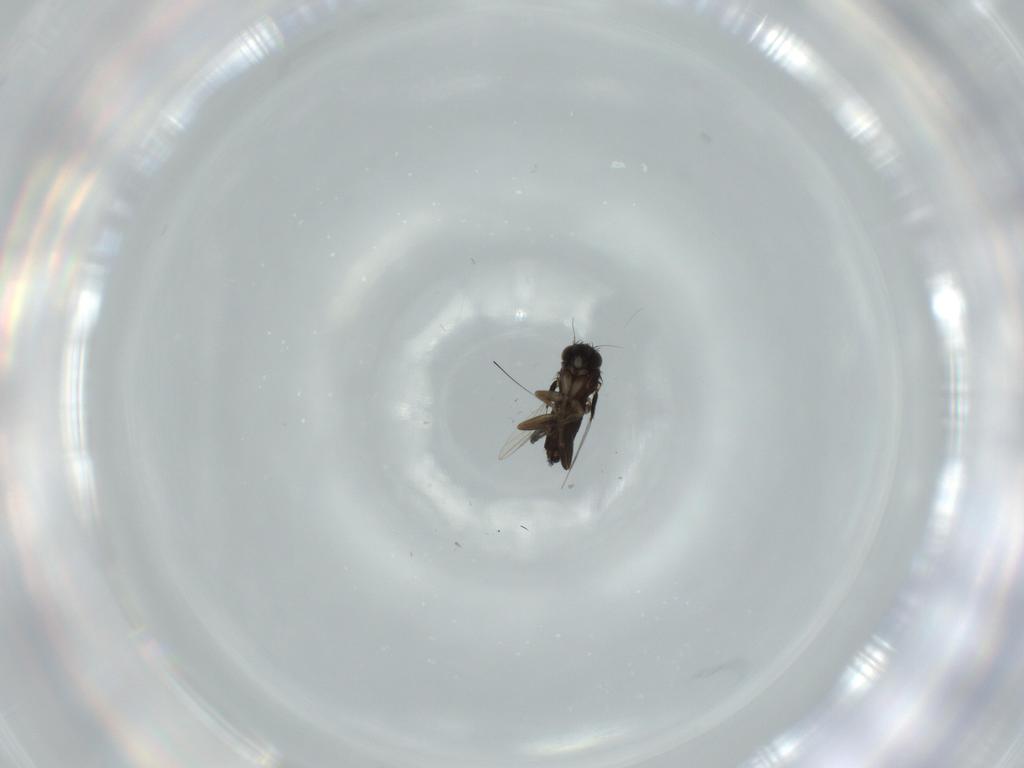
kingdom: Animalia
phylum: Arthropoda
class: Insecta
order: Diptera
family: Phoridae
